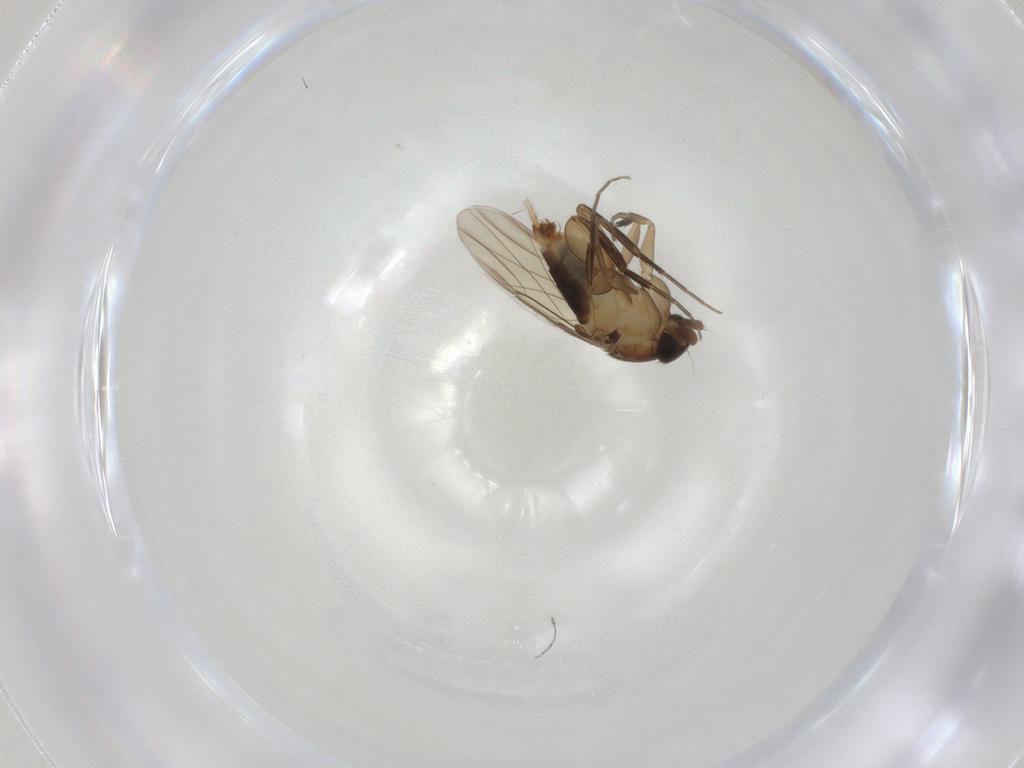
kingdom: Animalia
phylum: Arthropoda
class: Insecta
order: Diptera
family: Phoridae
